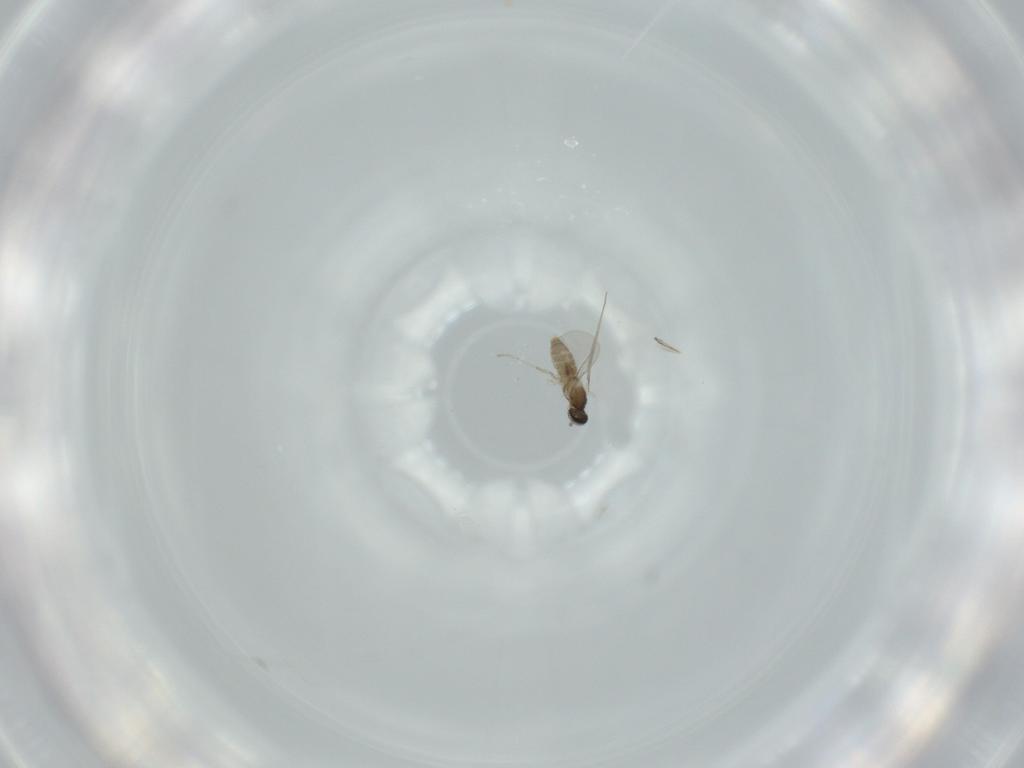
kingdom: Animalia
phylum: Arthropoda
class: Insecta
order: Diptera
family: Cecidomyiidae
